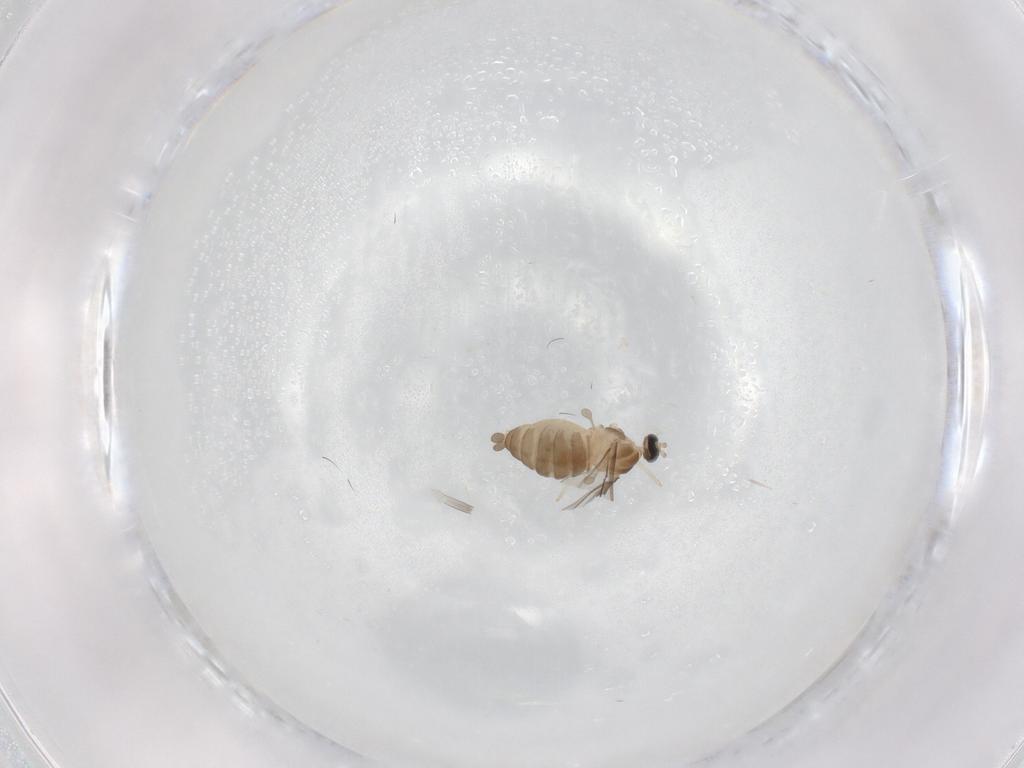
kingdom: Animalia
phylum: Arthropoda
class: Insecta
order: Diptera
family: Cecidomyiidae
